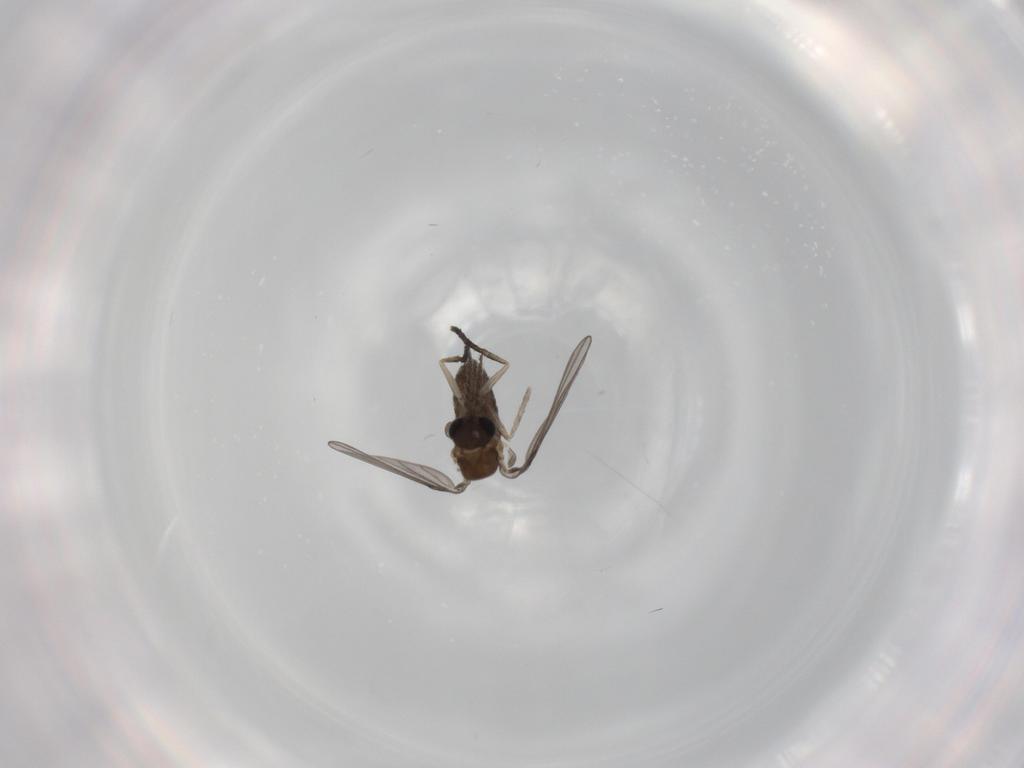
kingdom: Animalia
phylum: Arthropoda
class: Insecta
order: Diptera
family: Psychodidae
